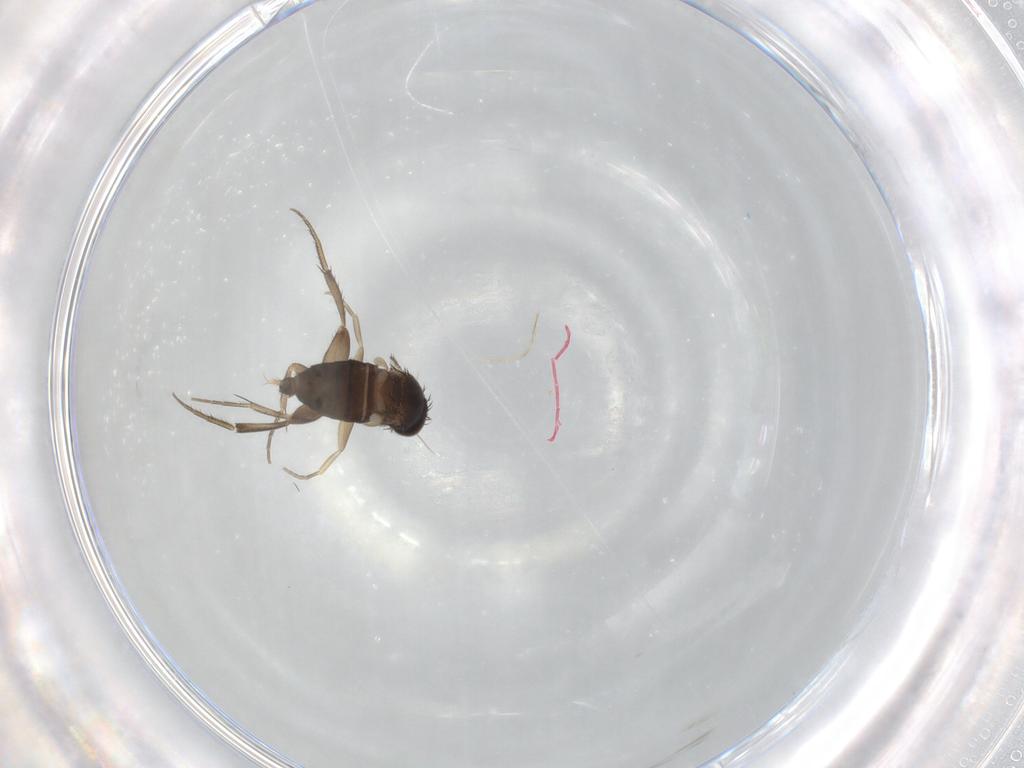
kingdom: Animalia
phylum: Arthropoda
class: Insecta
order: Diptera
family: Phoridae
